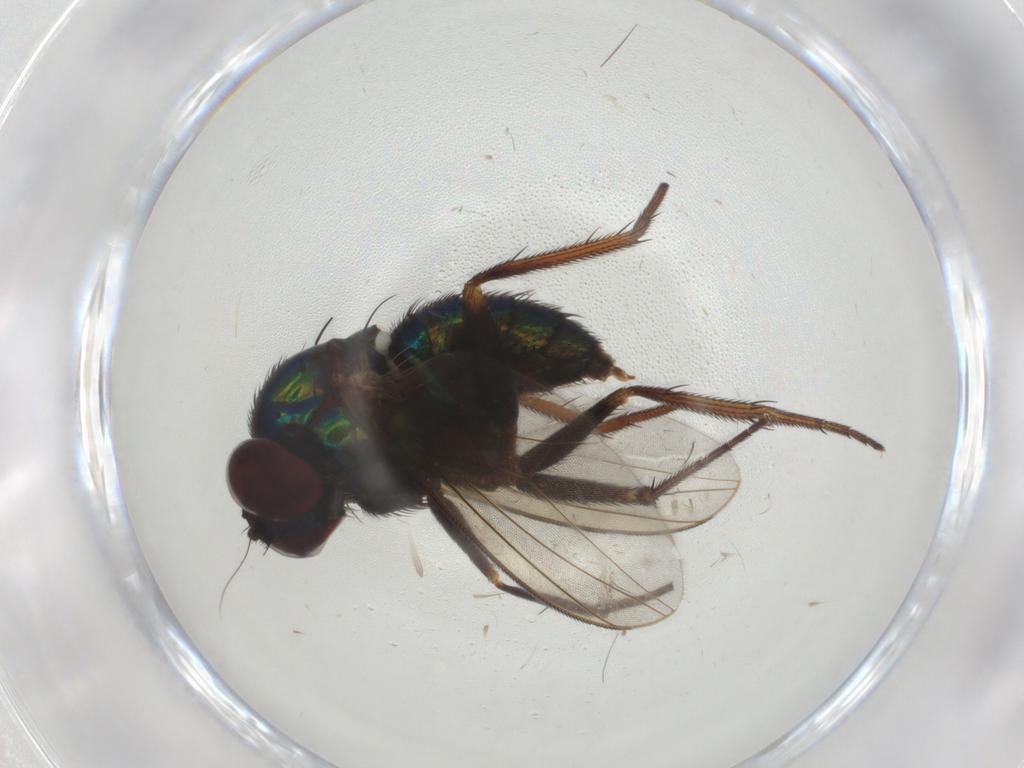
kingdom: Animalia
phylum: Arthropoda
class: Insecta
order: Diptera
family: Dolichopodidae
